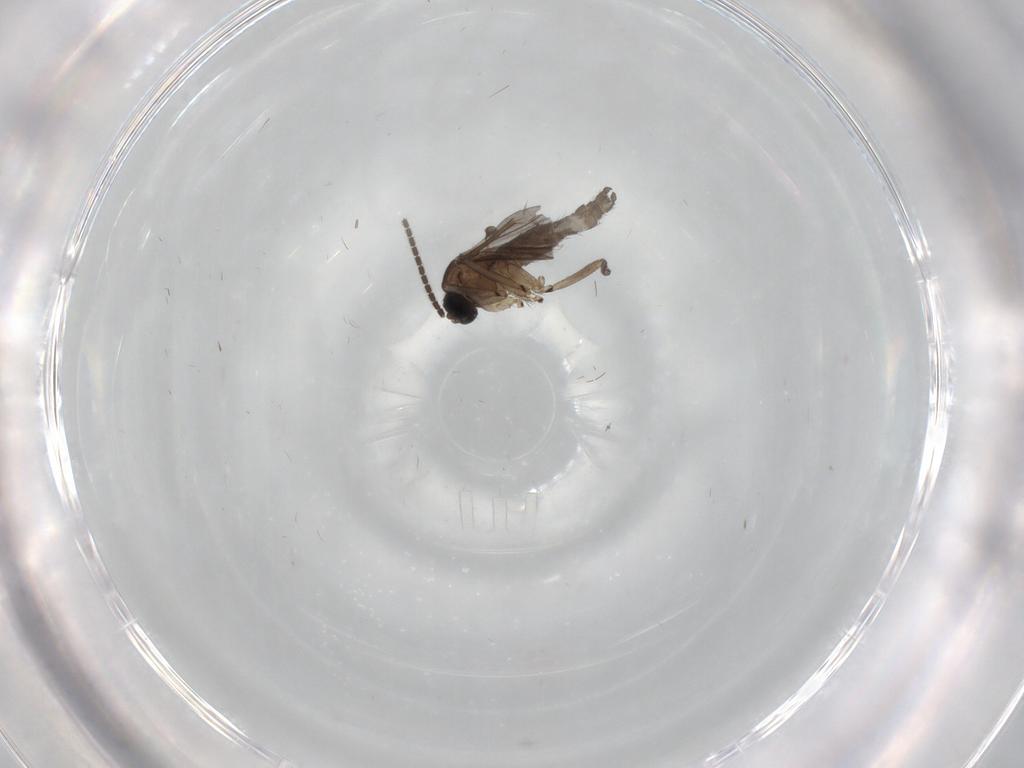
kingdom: Animalia
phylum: Arthropoda
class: Insecta
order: Diptera
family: Sciaridae
